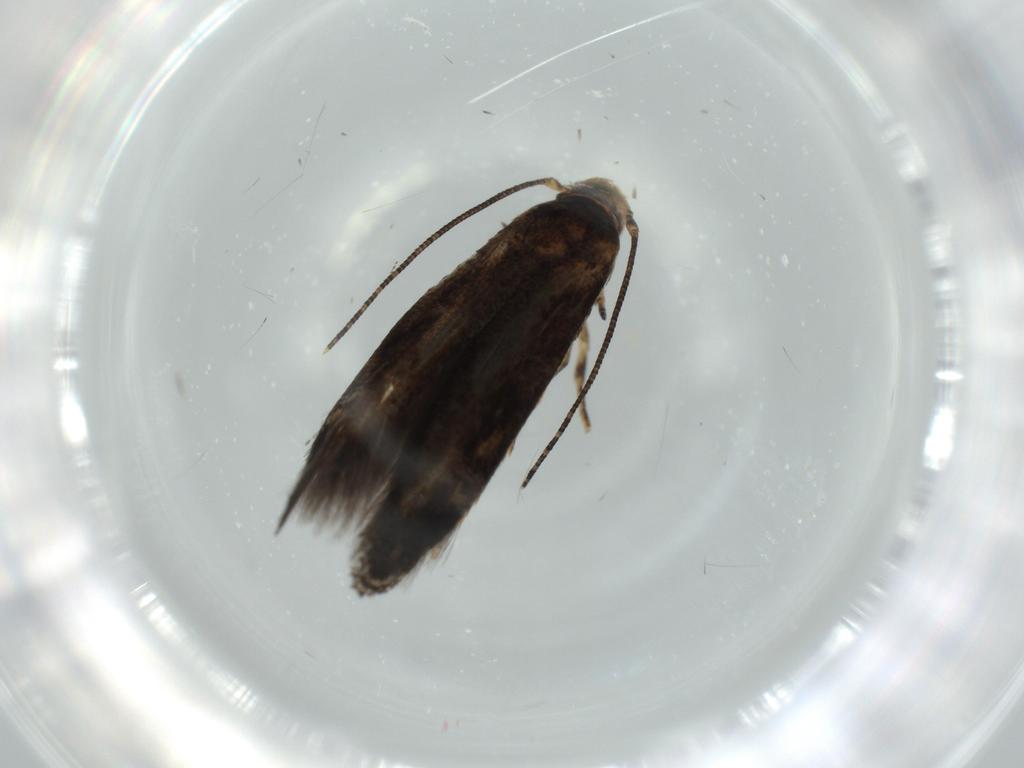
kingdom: Animalia
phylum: Arthropoda
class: Insecta
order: Lepidoptera
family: Momphidae
